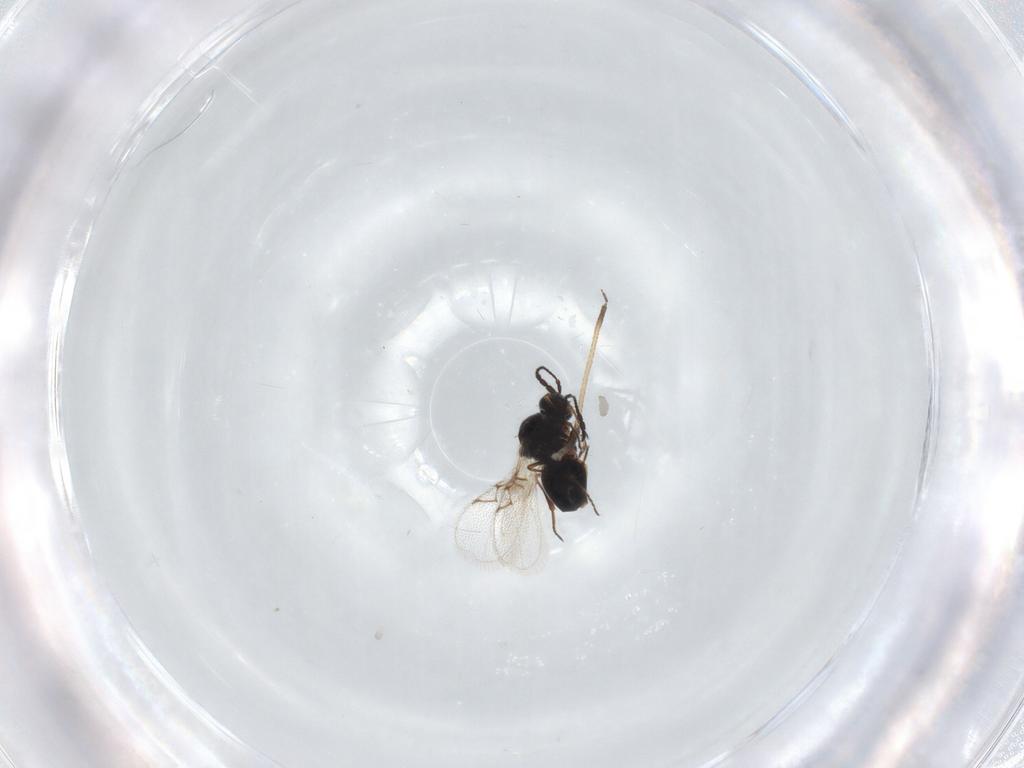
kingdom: Animalia
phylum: Arthropoda
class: Insecta
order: Hymenoptera
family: Figitidae
